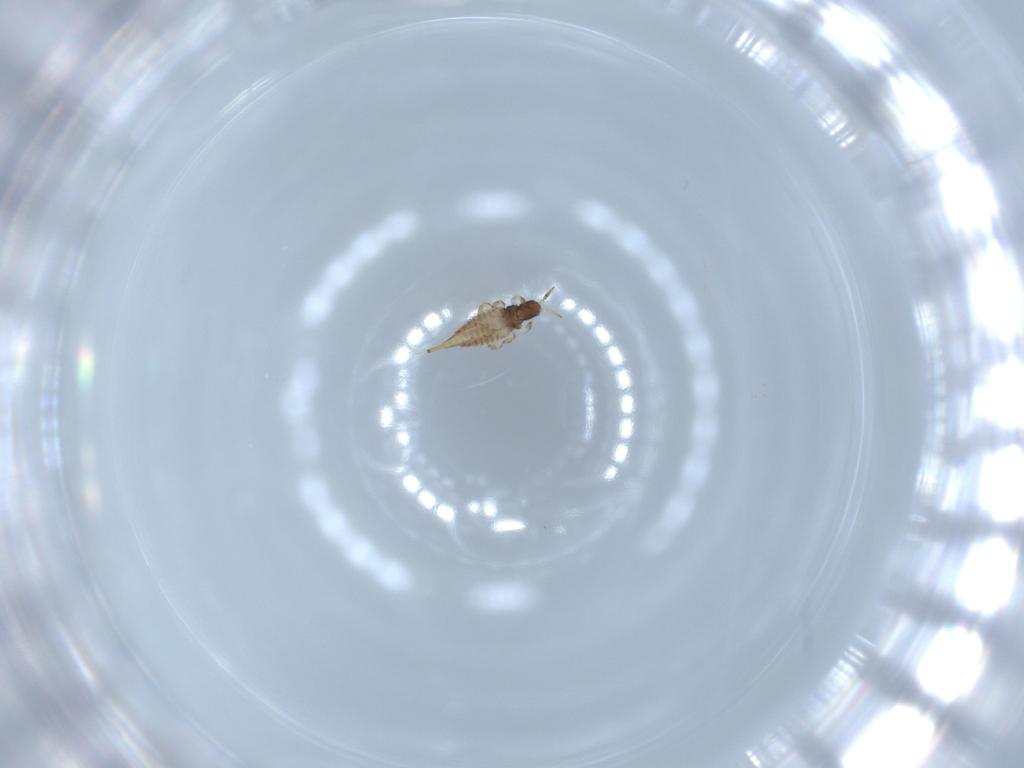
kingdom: Animalia
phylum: Arthropoda
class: Insecta
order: Thysanoptera
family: Phlaeothripidae
